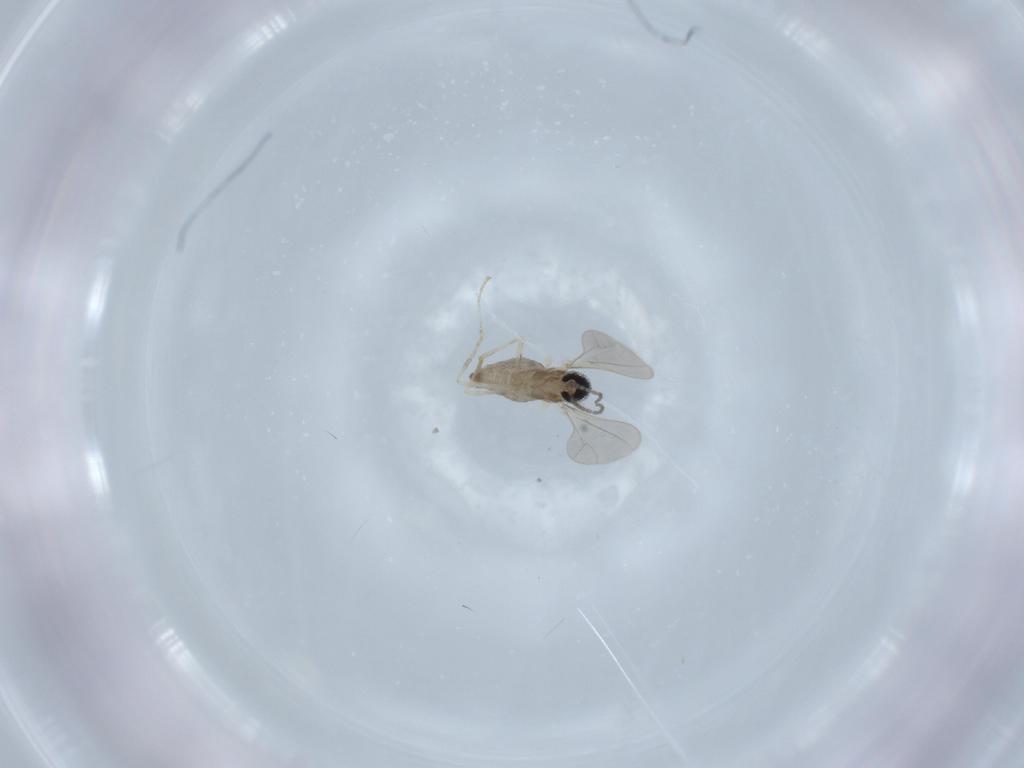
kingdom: Animalia
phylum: Arthropoda
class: Insecta
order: Diptera
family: Cecidomyiidae
